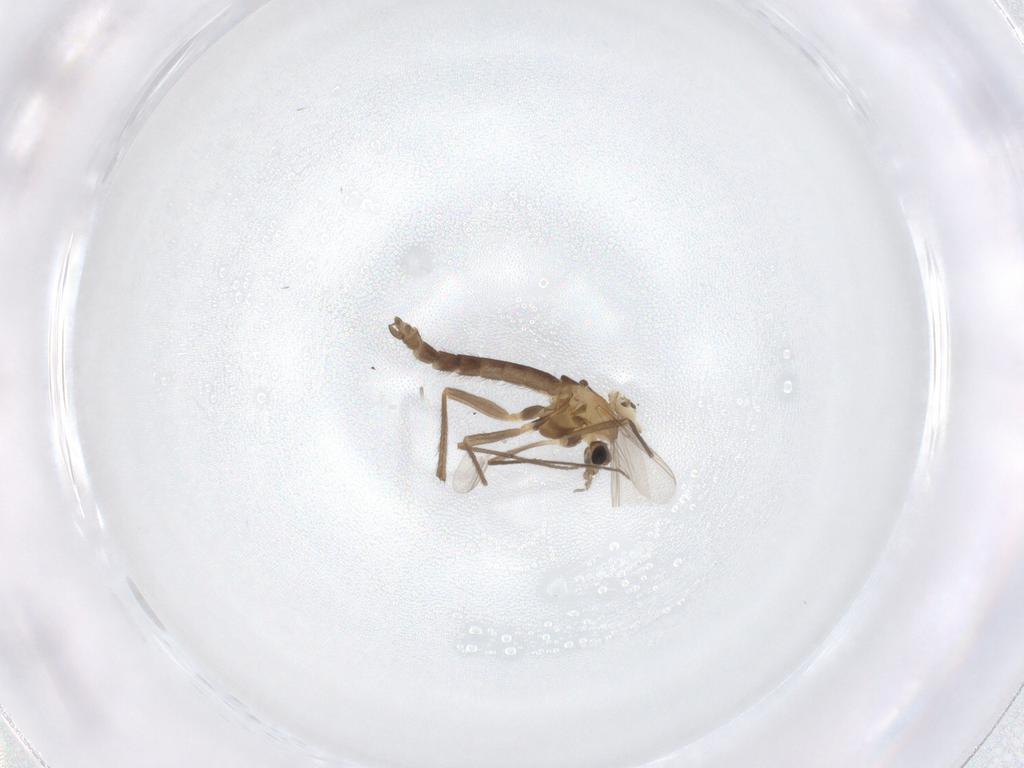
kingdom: Animalia
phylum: Arthropoda
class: Insecta
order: Diptera
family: Chironomidae
